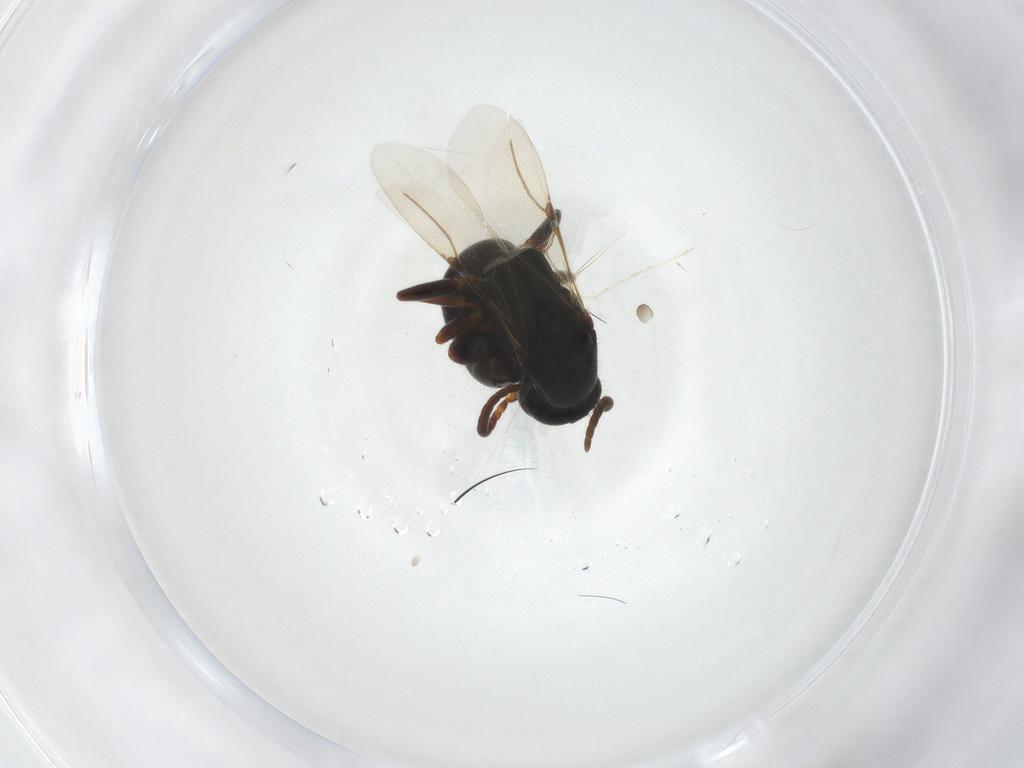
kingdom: Animalia
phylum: Arthropoda
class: Insecta
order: Hymenoptera
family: Bethylidae
